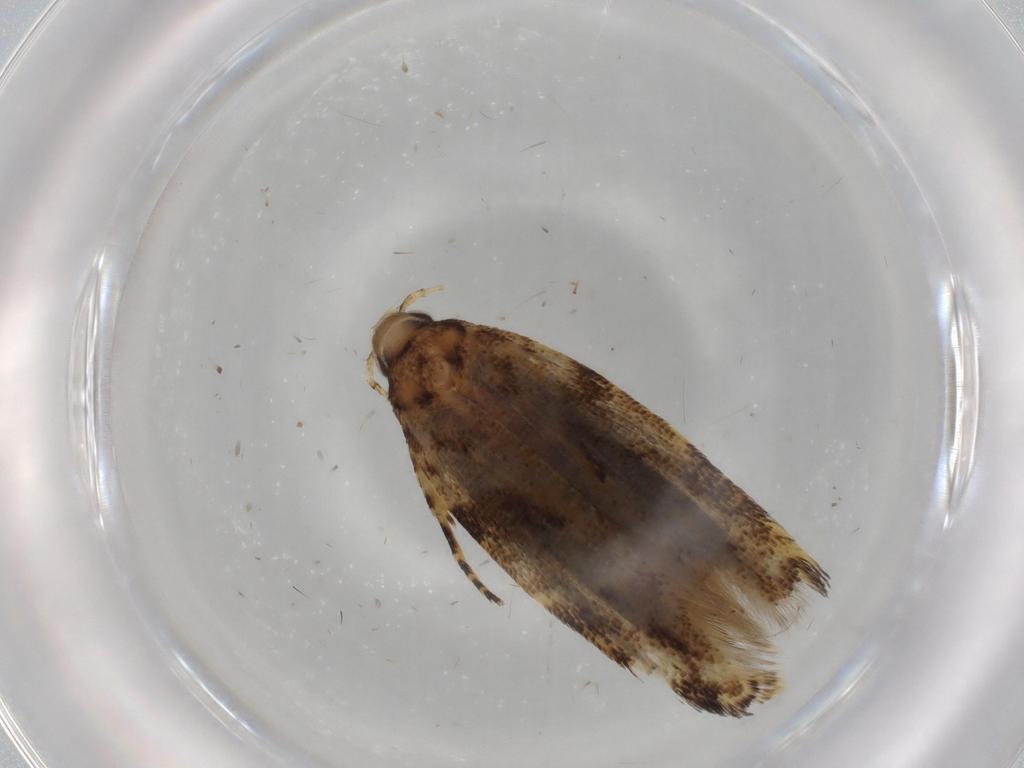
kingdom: Animalia
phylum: Arthropoda
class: Insecta
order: Lepidoptera
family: Gelechiidae
